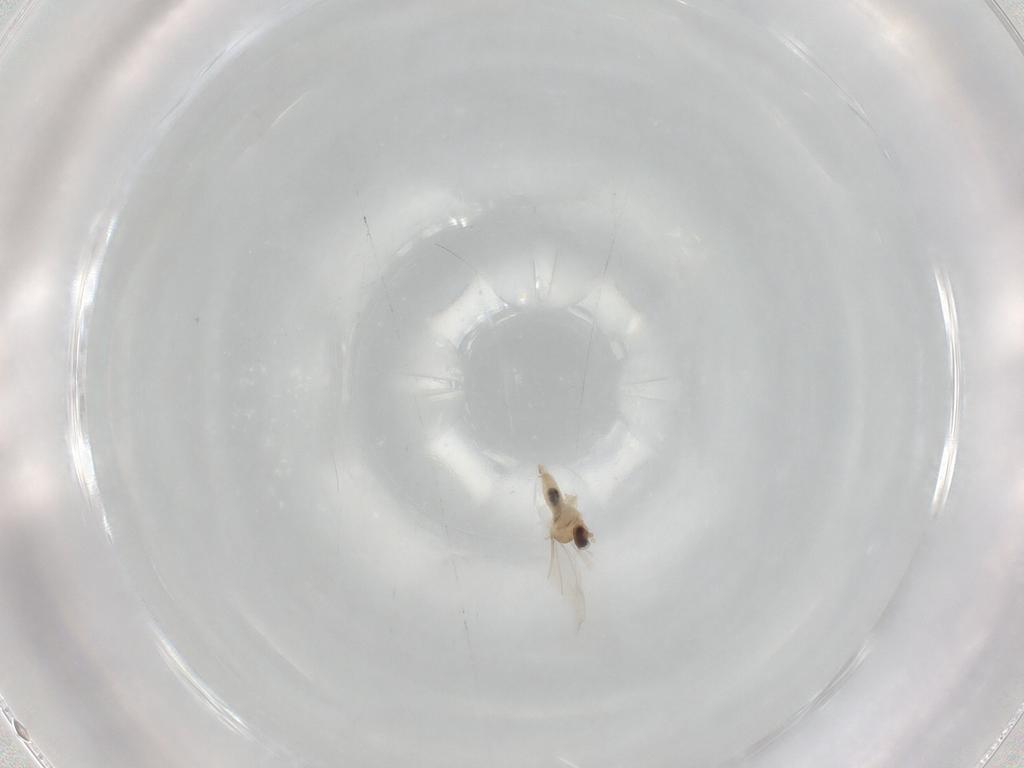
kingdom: Animalia
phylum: Arthropoda
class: Insecta
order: Diptera
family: Cecidomyiidae
